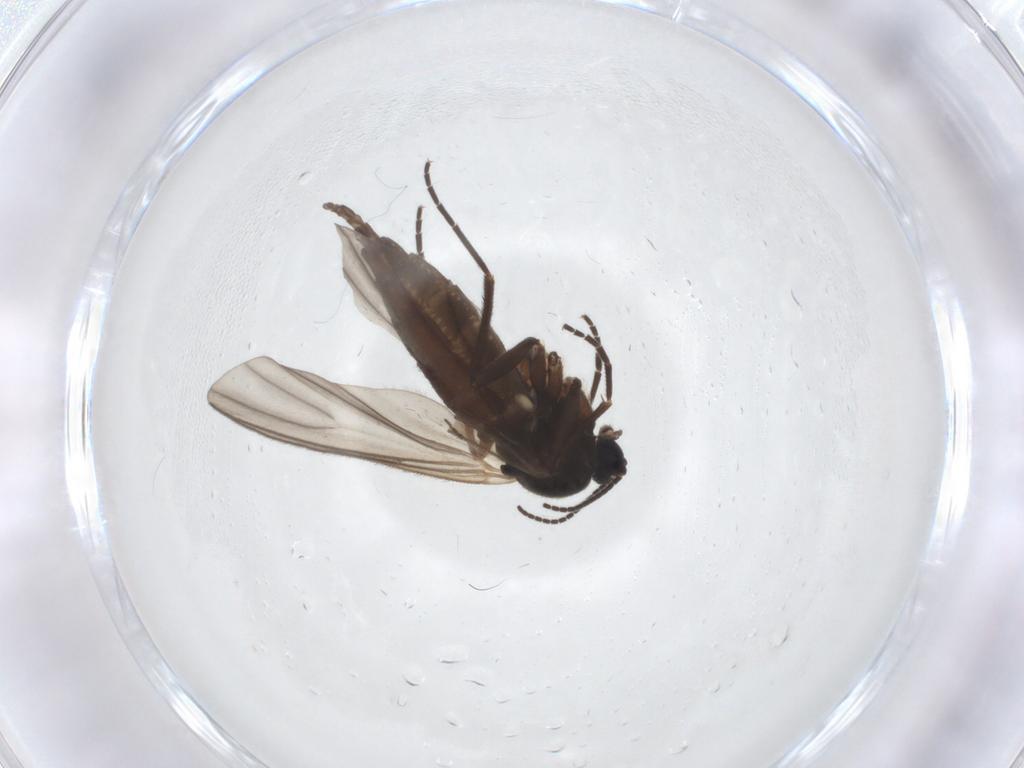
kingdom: Animalia
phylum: Arthropoda
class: Insecta
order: Diptera
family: Sciaridae
